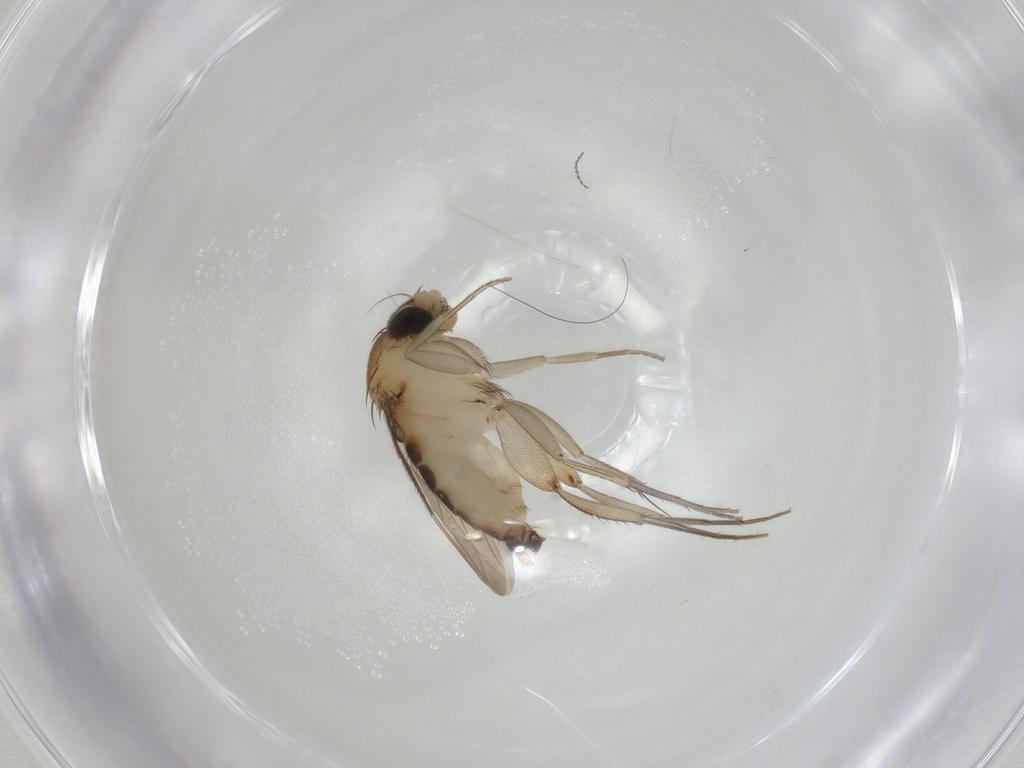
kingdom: Animalia
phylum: Arthropoda
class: Insecta
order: Diptera
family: Phoridae
